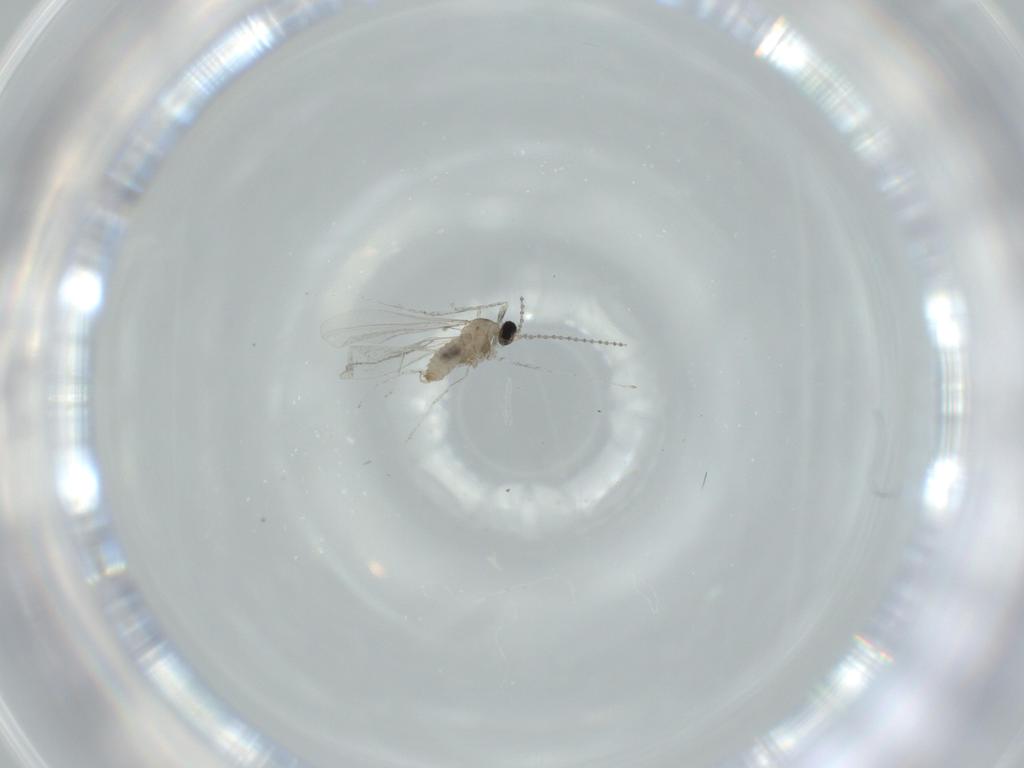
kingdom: Animalia
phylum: Arthropoda
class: Insecta
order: Diptera
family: Cecidomyiidae
